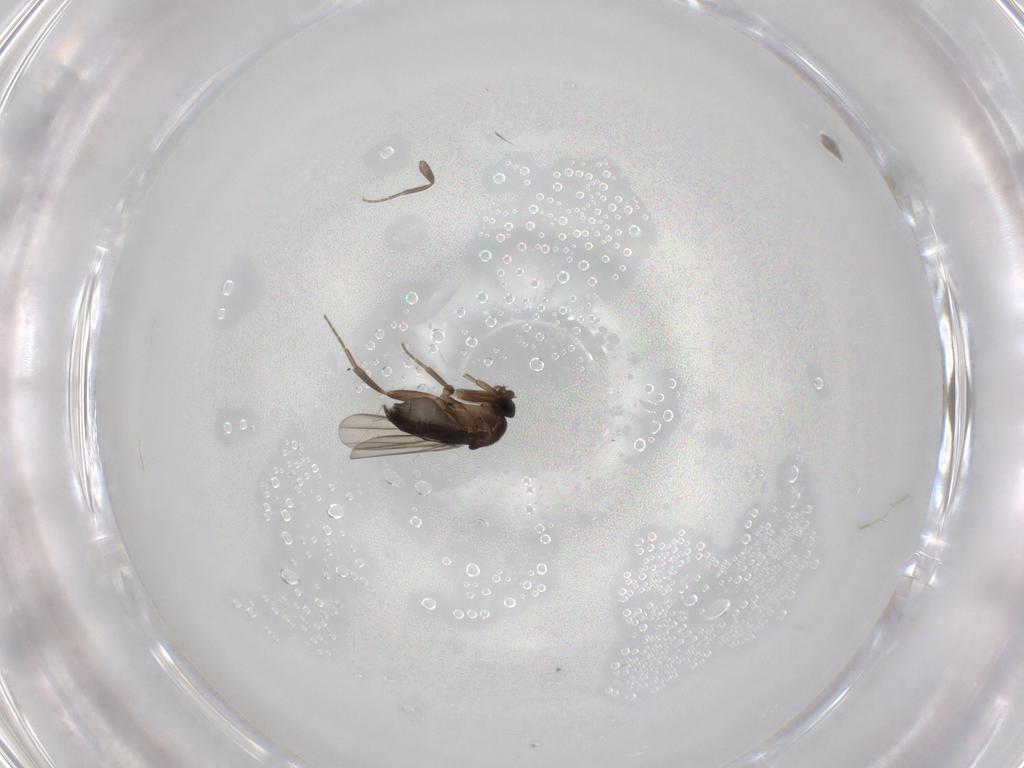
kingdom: Animalia
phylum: Arthropoda
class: Insecta
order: Diptera
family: Phoridae
